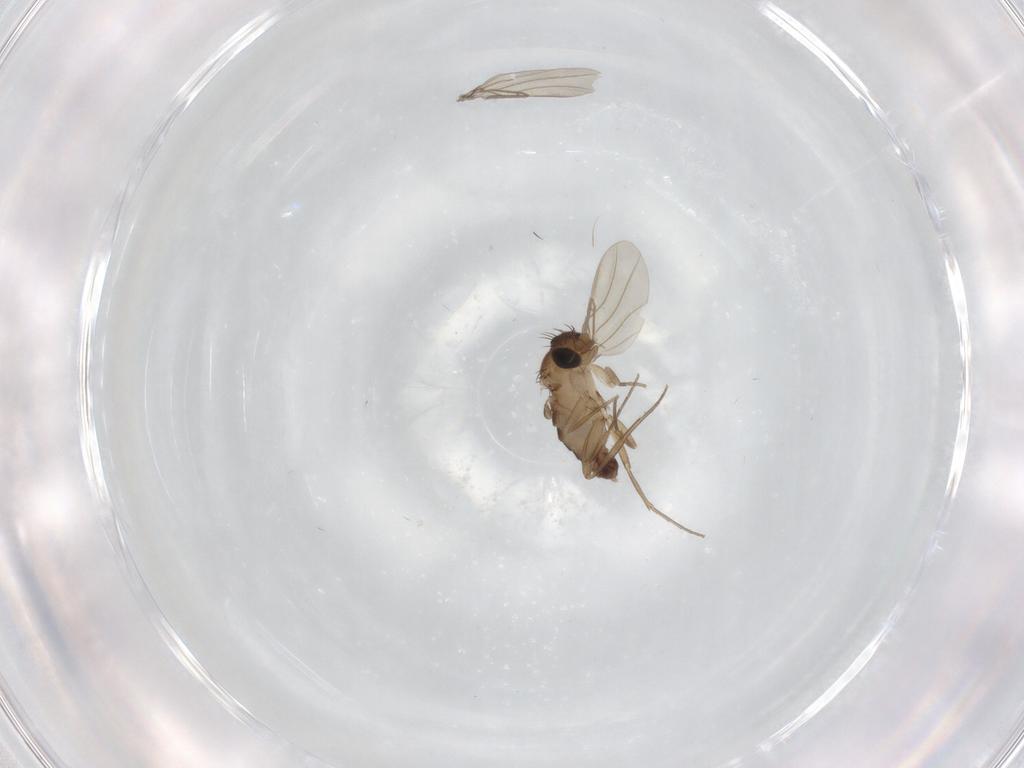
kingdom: Animalia
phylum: Arthropoda
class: Insecta
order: Diptera
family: Phoridae
